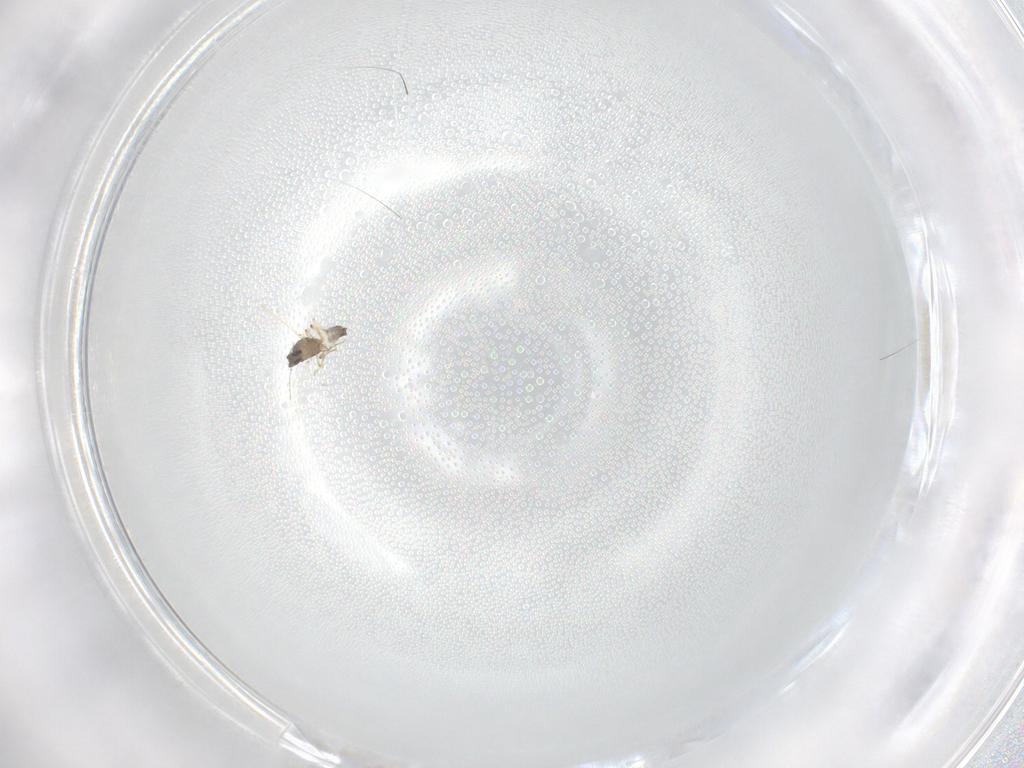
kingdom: Animalia
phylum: Arthropoda
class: Insecta
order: Diptera
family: Ceratopogonidae
